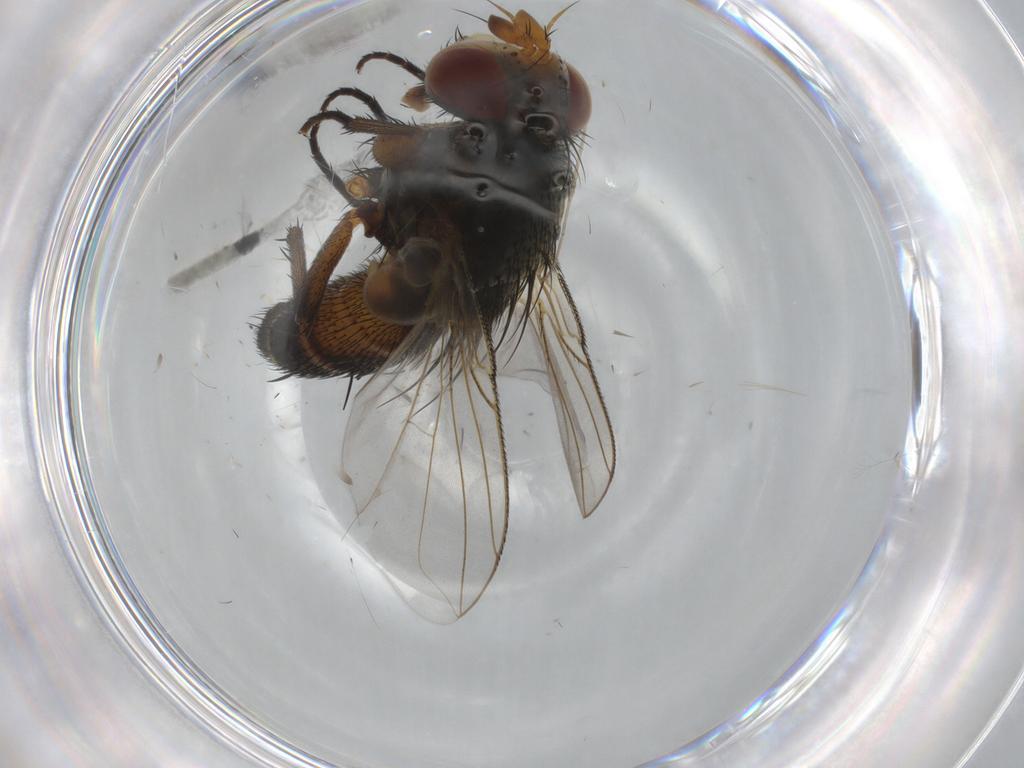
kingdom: Animalia
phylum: Arthropoda
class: Insecta
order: Diptera
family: Tachinidae
